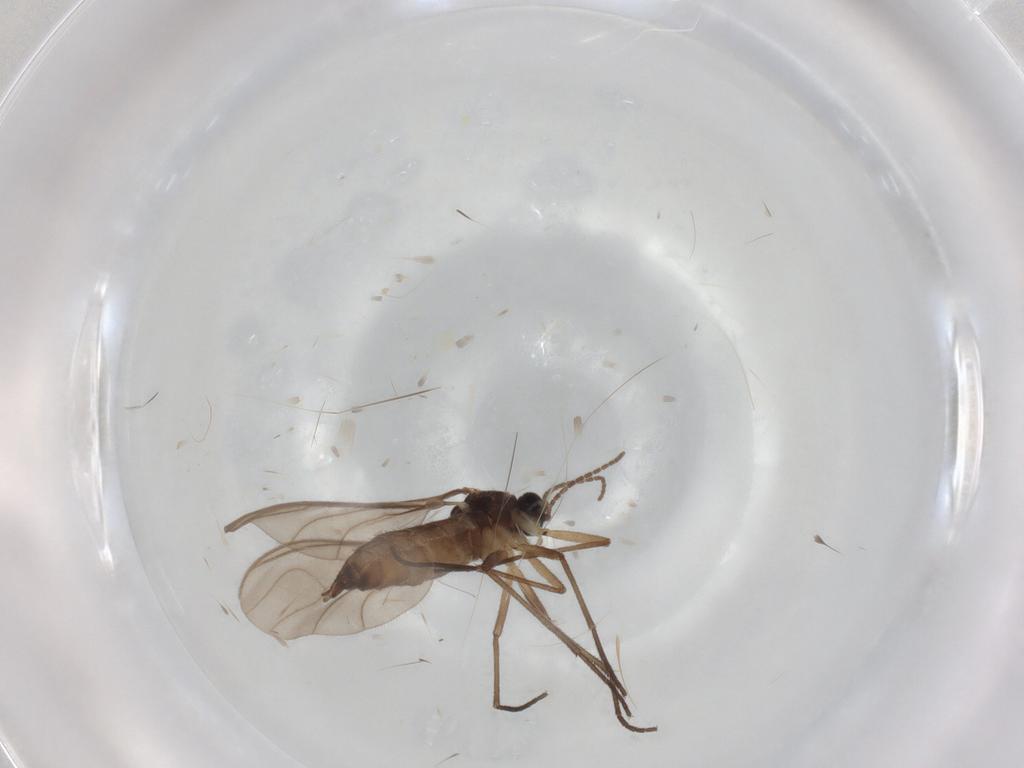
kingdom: Animalia
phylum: Arthropoda
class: Insecta
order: Diptera
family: Sciaridae
